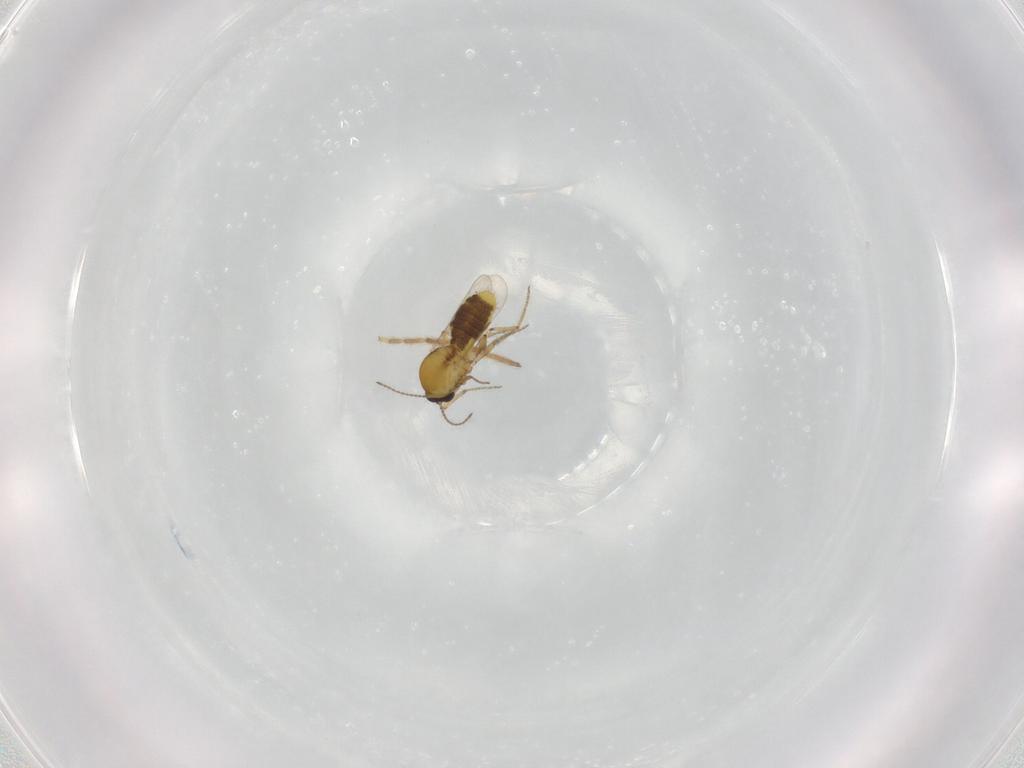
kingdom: Animalia
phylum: Arthropoda
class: Insecta
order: Diptera
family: Ceratopogonidae
